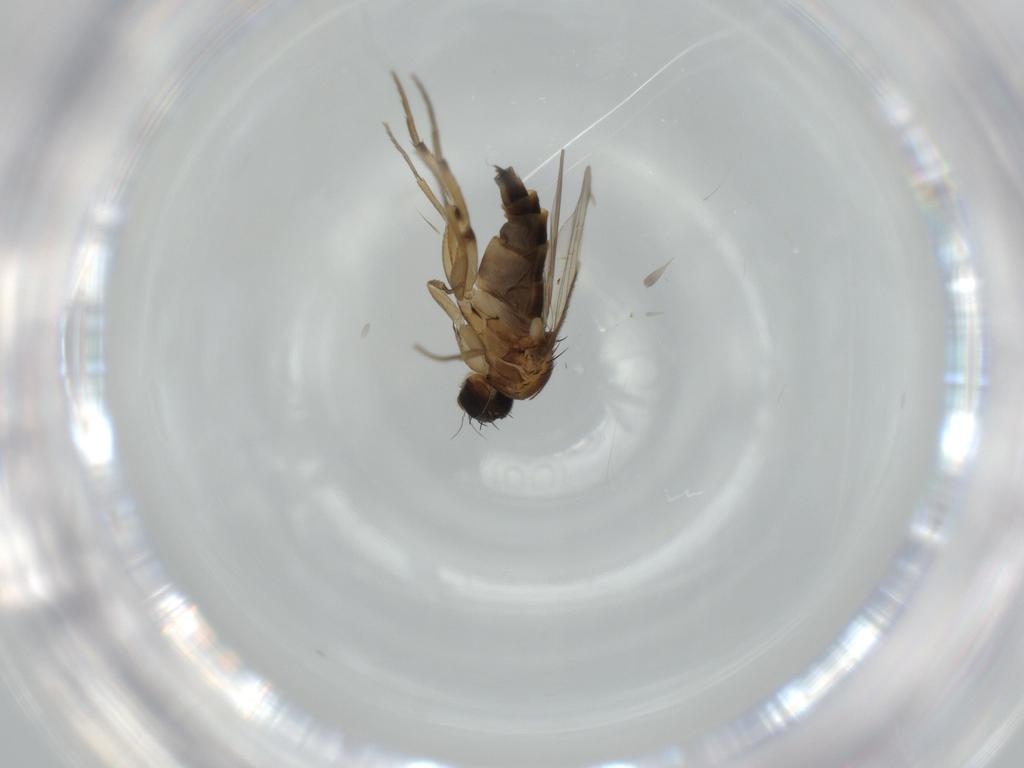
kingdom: Animalia
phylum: Arthropoda
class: Insecta
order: Diptera
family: Phoridae
